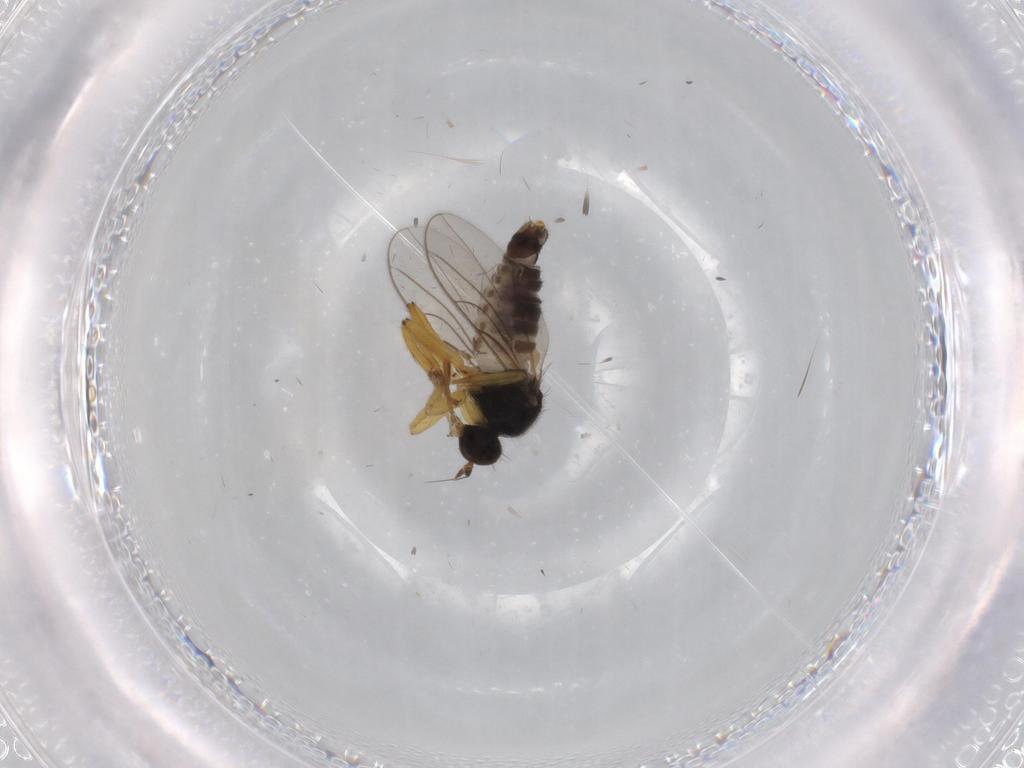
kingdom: Animalia
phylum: Arthropoda
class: Insecta
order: Diptera
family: Hybotidae
